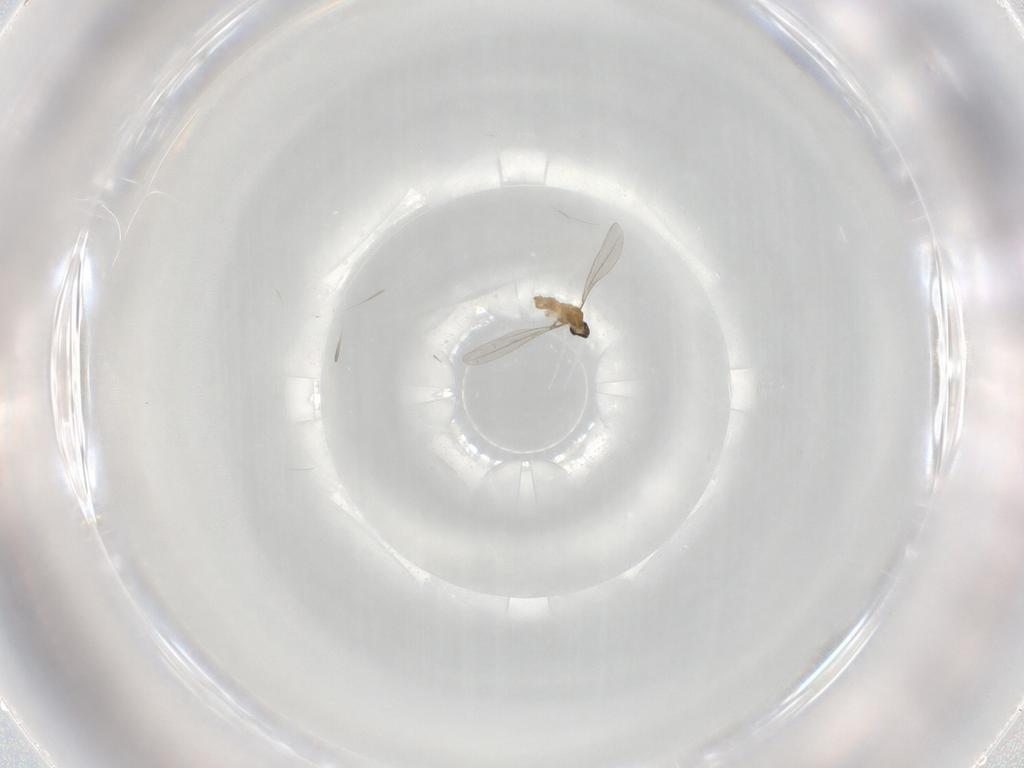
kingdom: Animalia
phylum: Arthropoda
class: Insecta
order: Diptera
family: Cecidomyiidae
